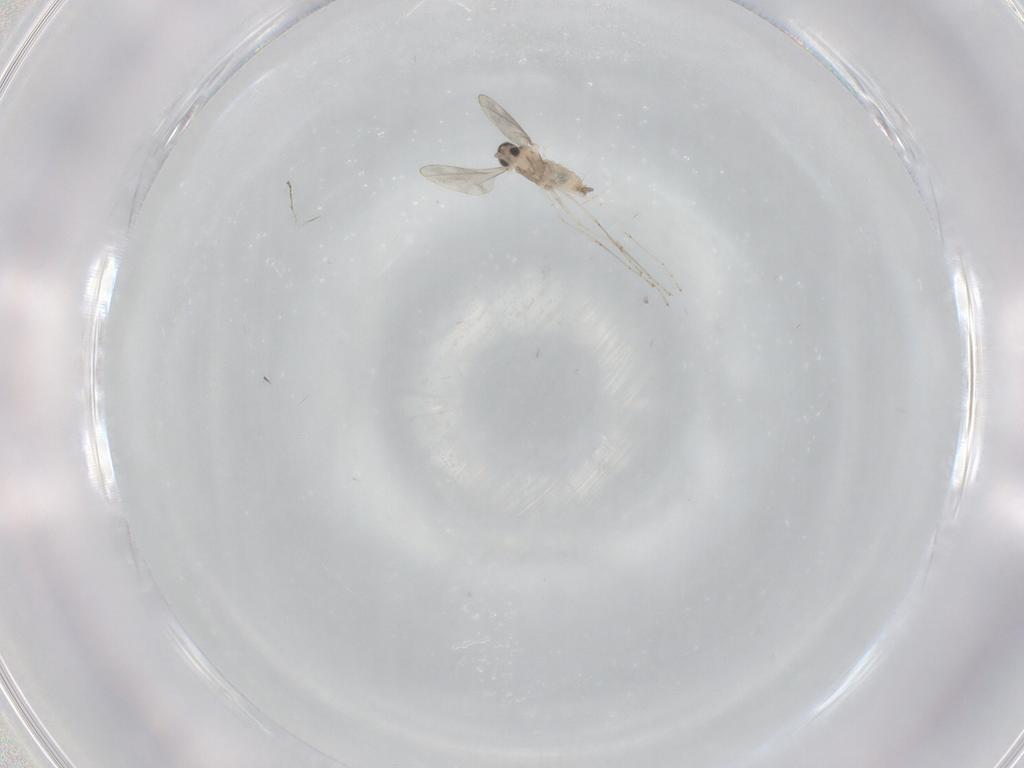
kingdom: Animalia
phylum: Arthropoda
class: Insecta
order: Diptera
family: Cecidomyiidae
